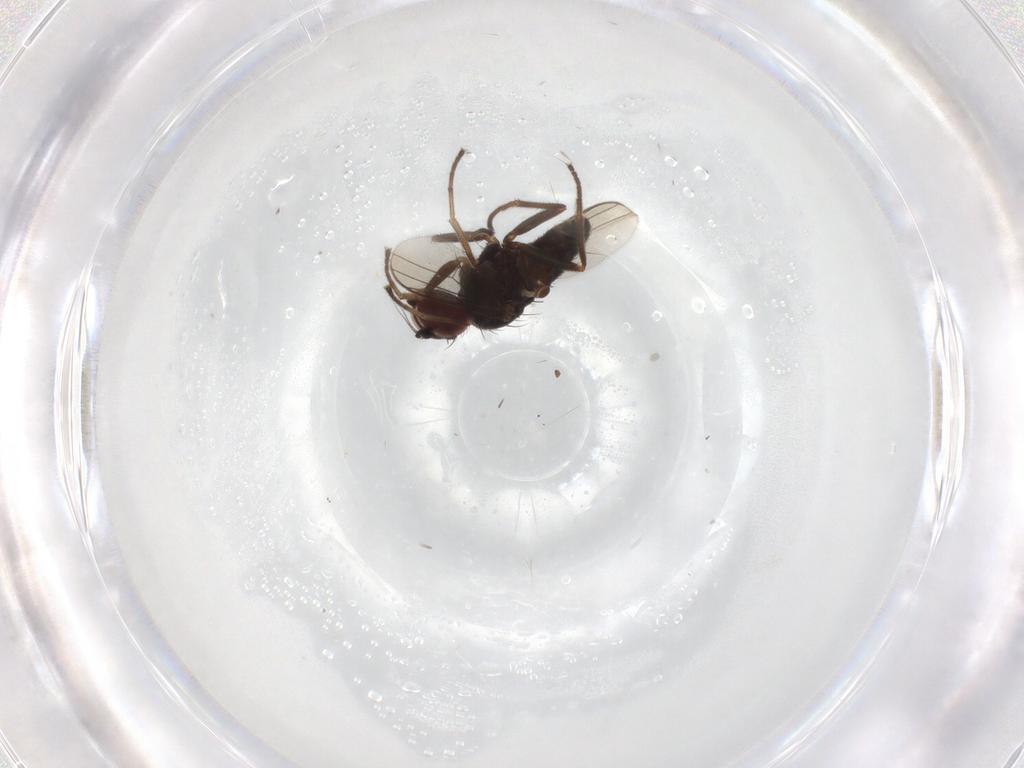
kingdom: Animalia
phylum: Arthropoda
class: Insecta
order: Diptera
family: Dolichopodidae
